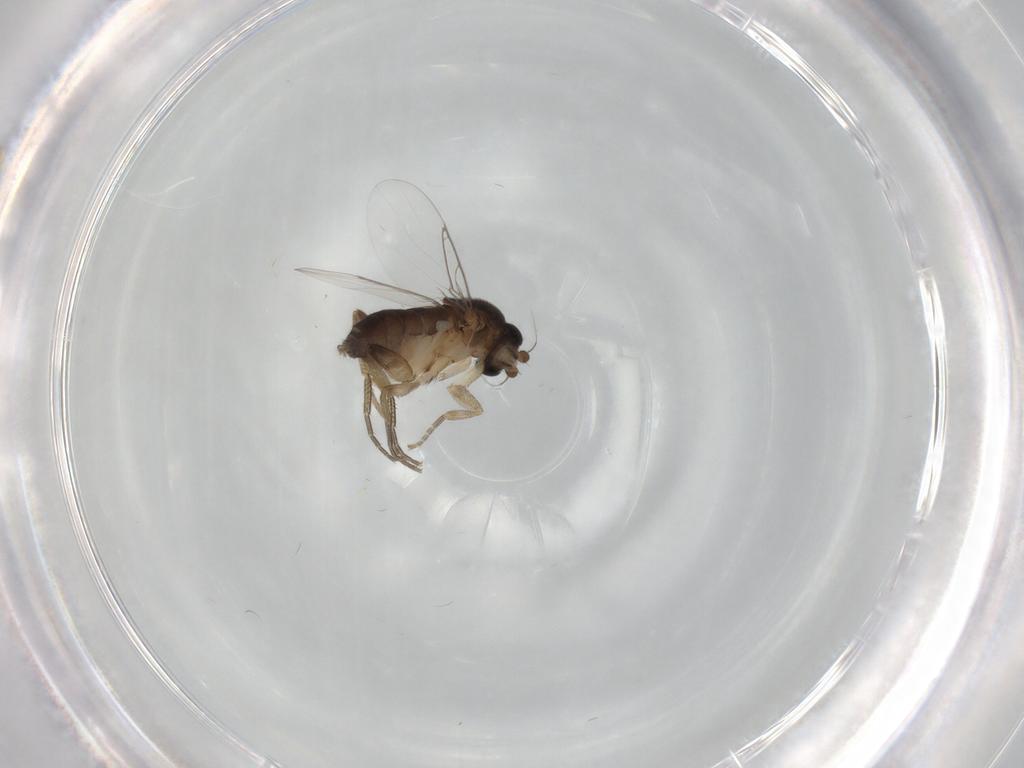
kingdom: Animalia
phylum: Arthropoda
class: Insecta
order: Diptera
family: Phoridae
